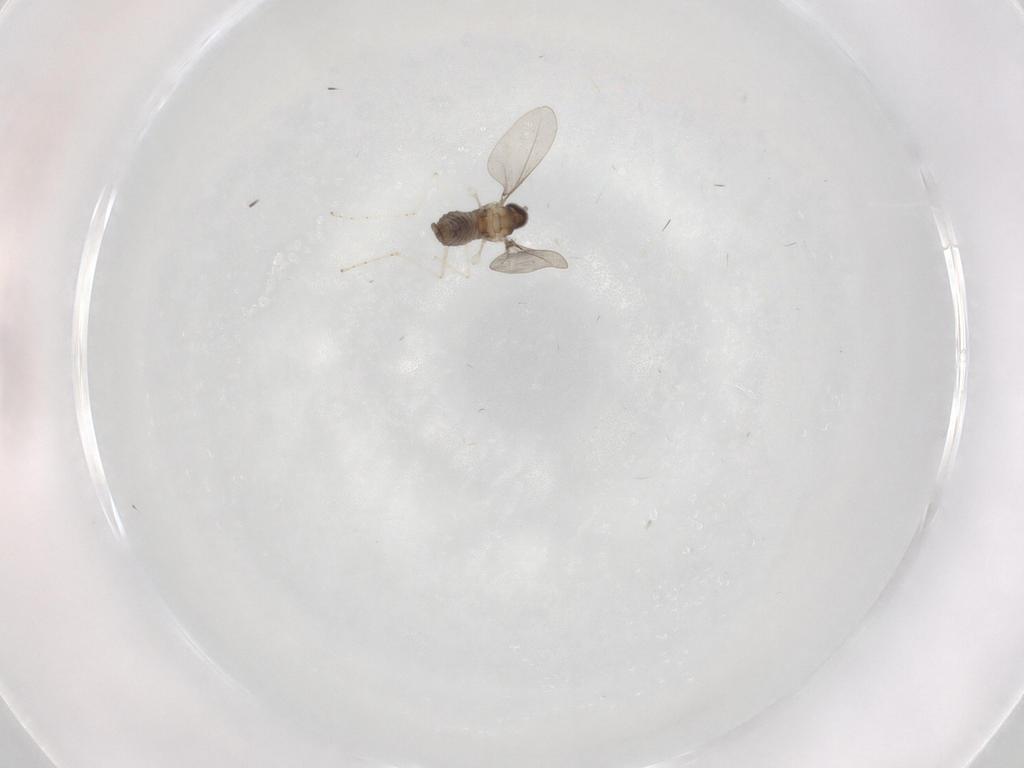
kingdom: Animalia
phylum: Arthropoda
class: Insecta
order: Diptera
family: Cecidomyiidae
